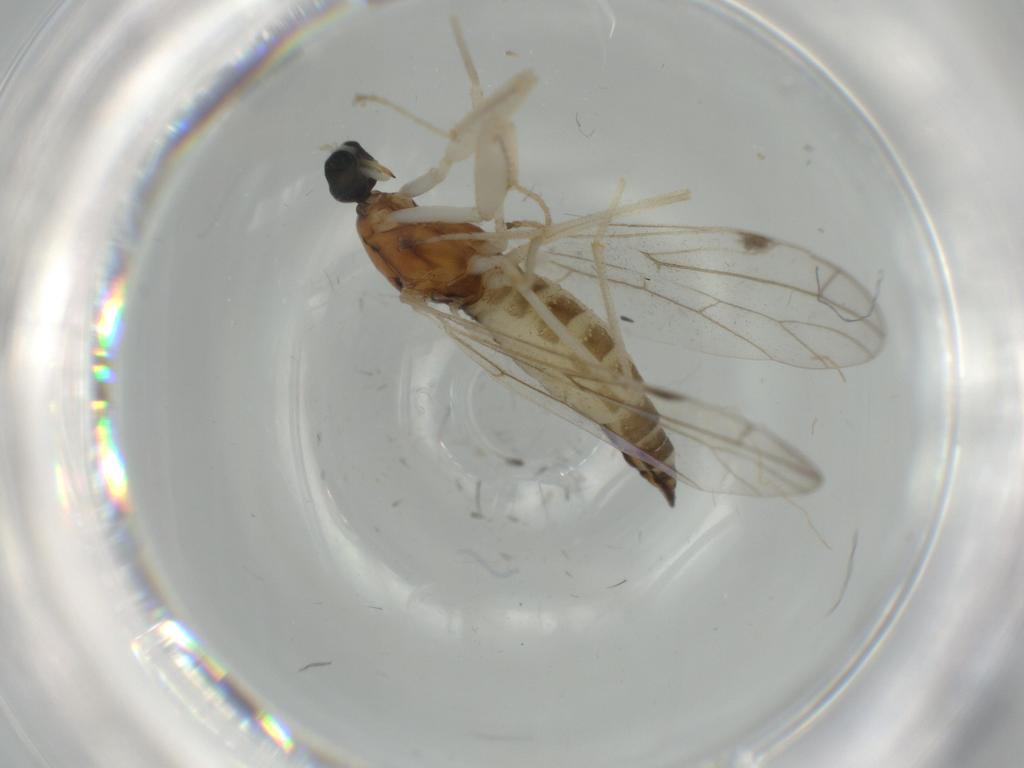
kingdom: Animalia
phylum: Arthropoda
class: Insecta
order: Diptera
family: Empididae
